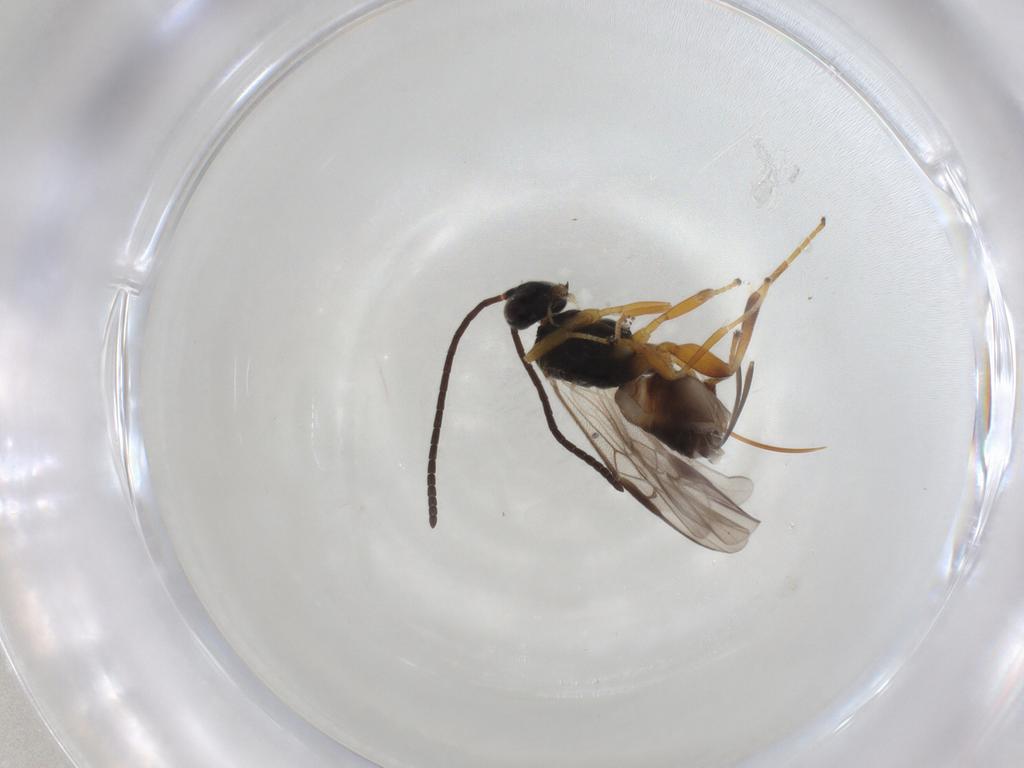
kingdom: Animalia
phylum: Arthropoda
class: Insecta
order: Hymenoptera
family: Braconidae
